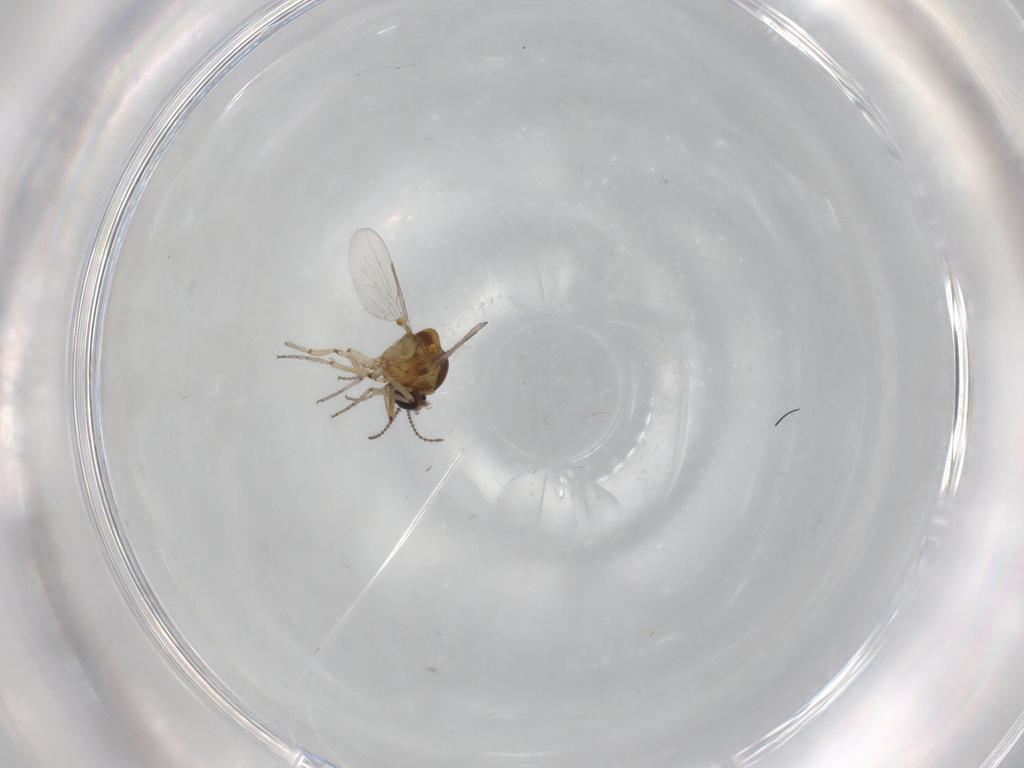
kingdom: Animalia
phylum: Arthropoda
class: Insecta
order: Diptera
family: Ceratopogonidae
